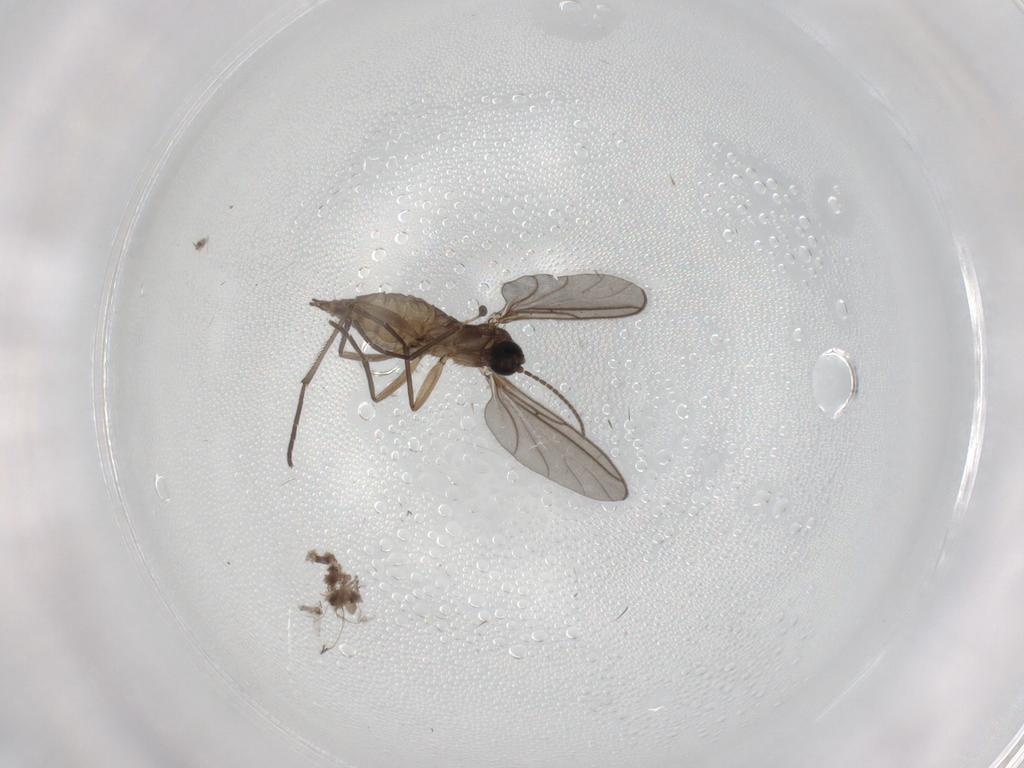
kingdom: Animalia
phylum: Arthropoda
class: Insecta
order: Diptera
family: Sciaridae
